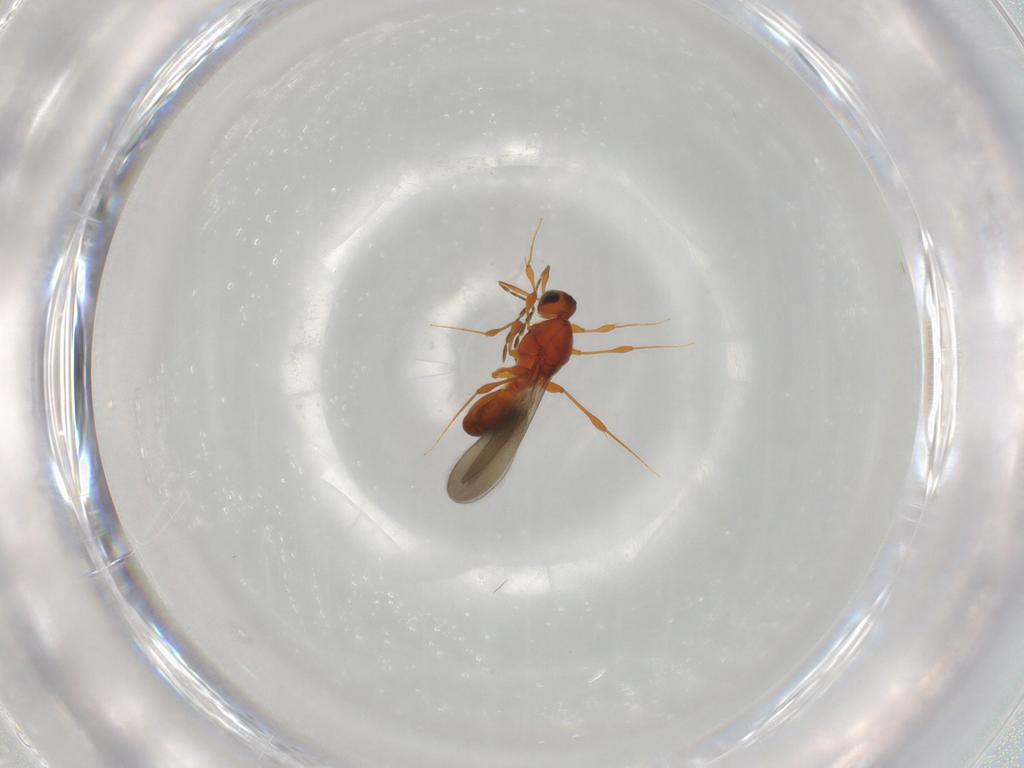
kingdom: Animalia
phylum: Arthropoda
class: Insecta
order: Hymenoptera
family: Platygastridae
